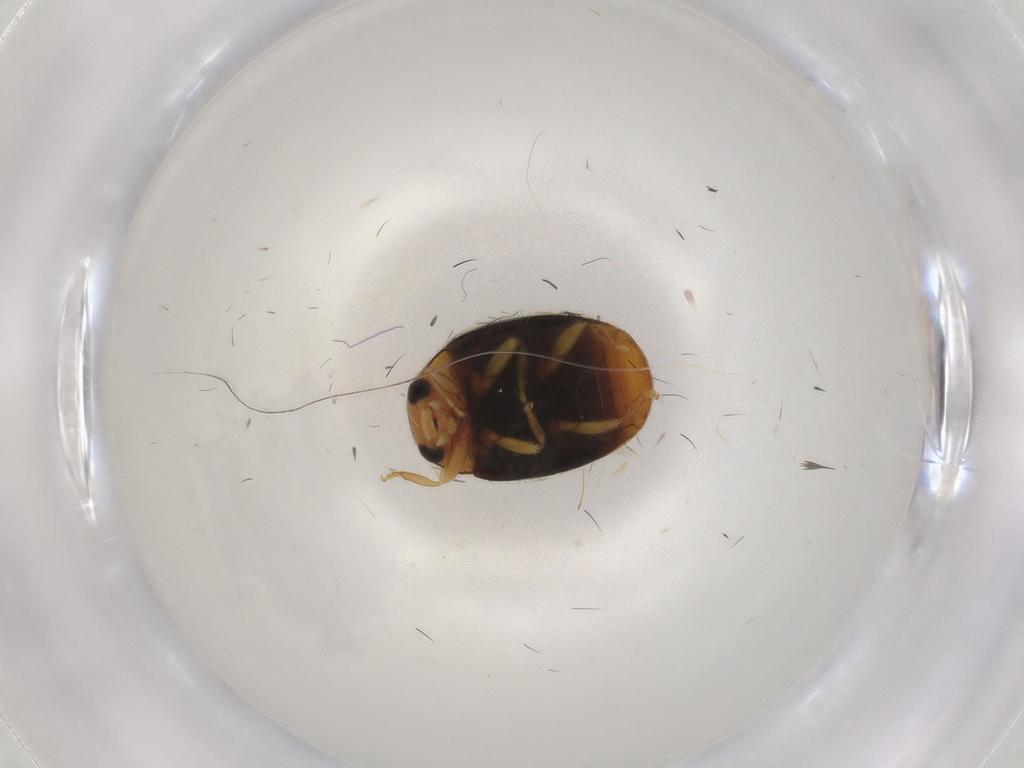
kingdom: Animalia
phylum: Arthropoda
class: Insecta
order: Coleoptera
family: Coccinellidae
